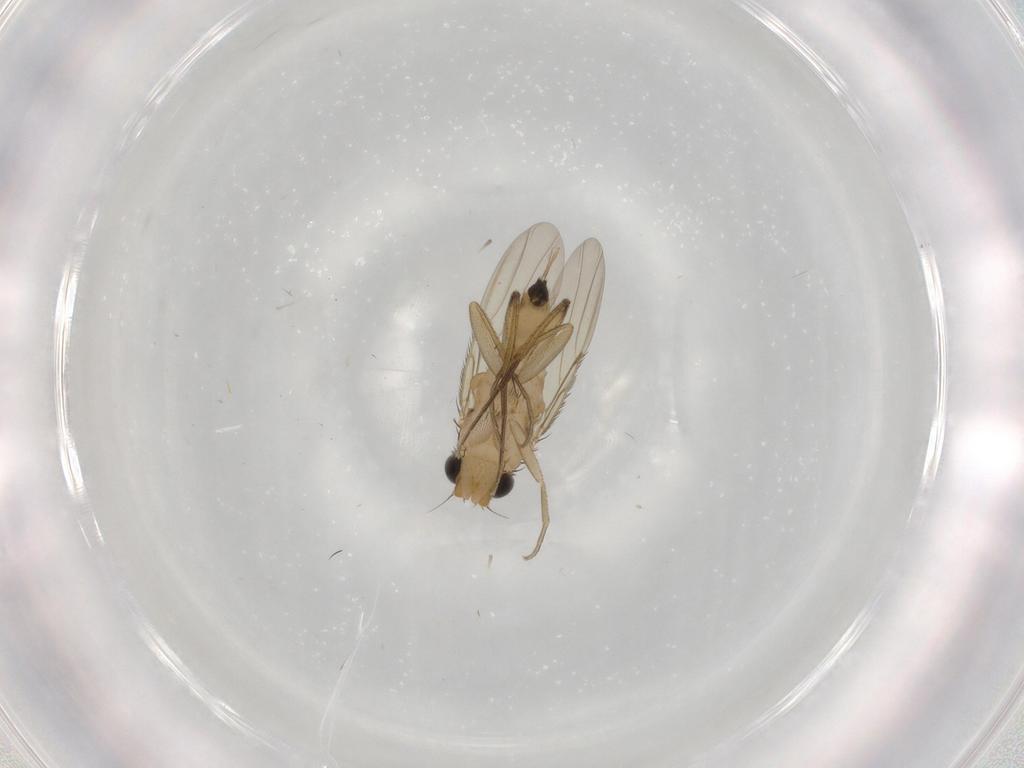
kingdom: Animalia
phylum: Arthropoda
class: Insecta
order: Diptera
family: Phoridae
